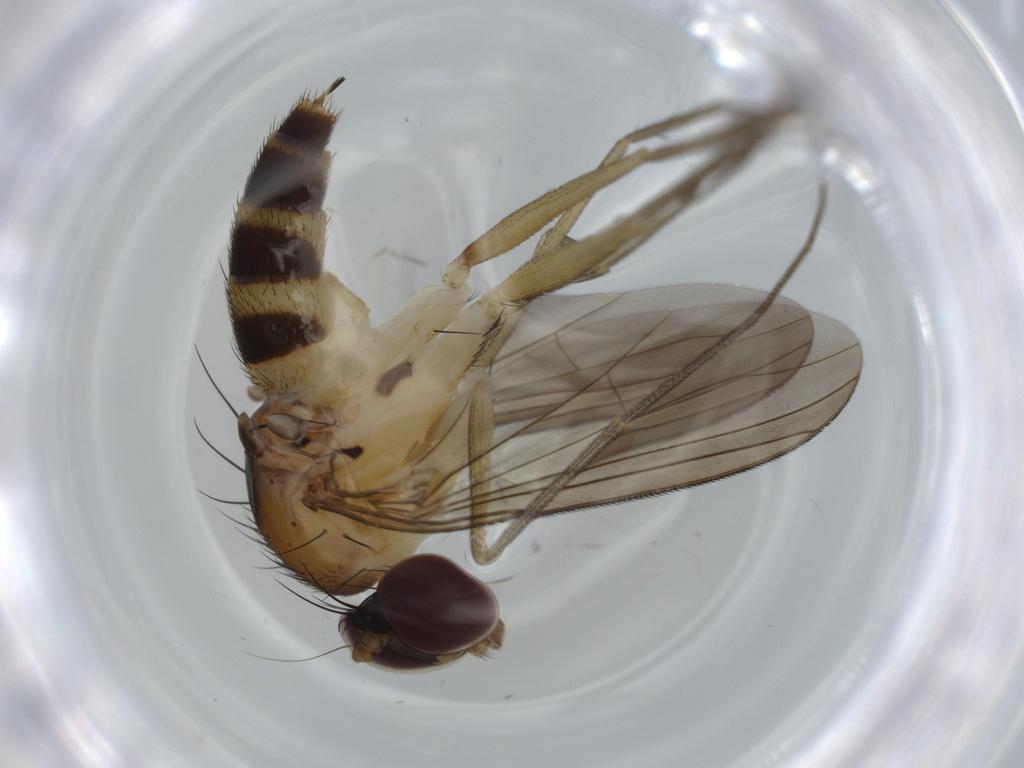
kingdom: Animalia
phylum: Arthropoda
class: Insecta
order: Diptera
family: Dolichopodidae
